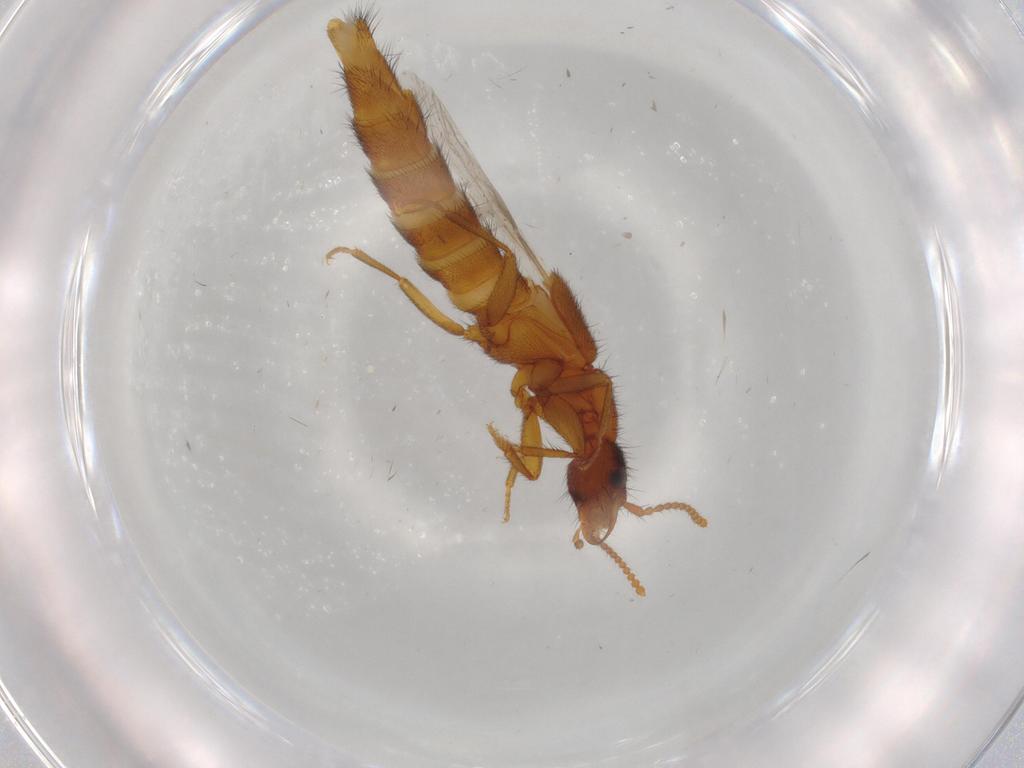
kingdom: Animalia
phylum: Arthropoda
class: Insecta
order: Coleoptera
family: Staphylinidae
